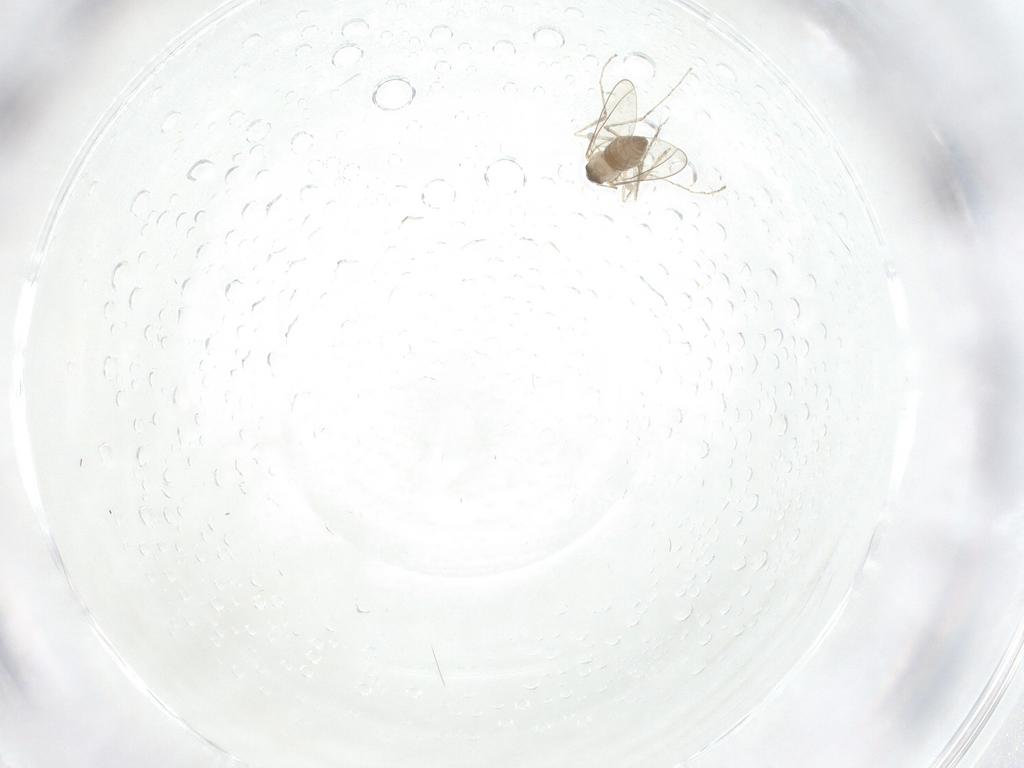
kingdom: Animalia
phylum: Arthropoda
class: Insecta
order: Diptera
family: Cecidomyiidae
